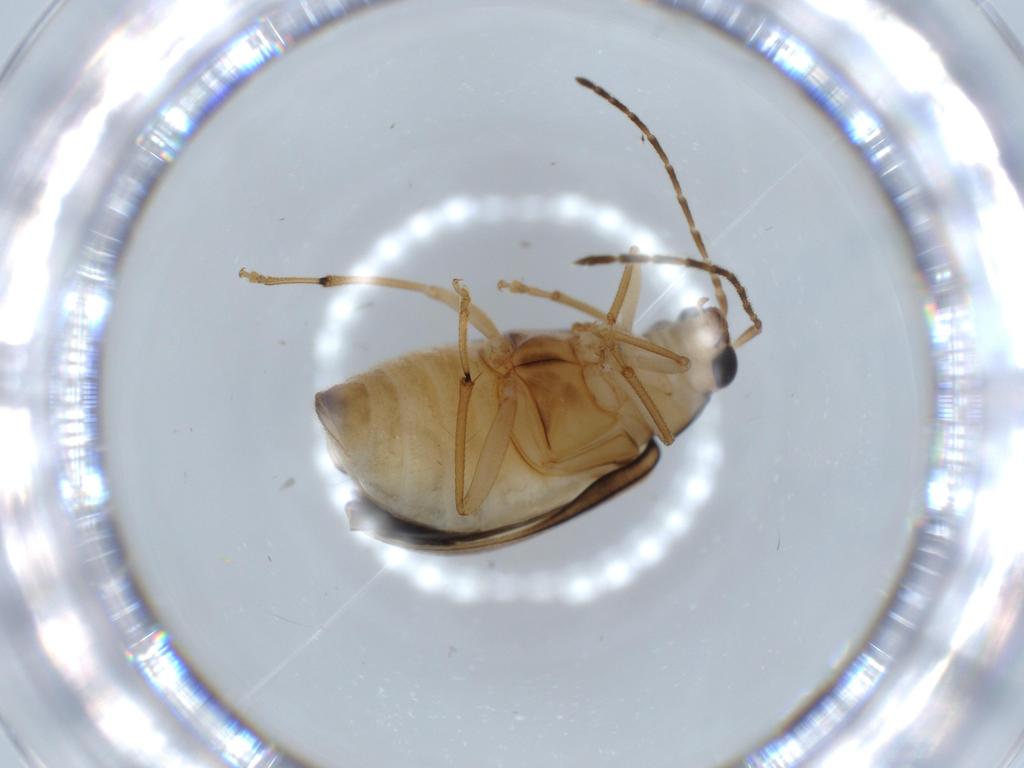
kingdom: Animalia
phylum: Arthropoda
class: Insecta
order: Coleoptera
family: Chrysomelidae
